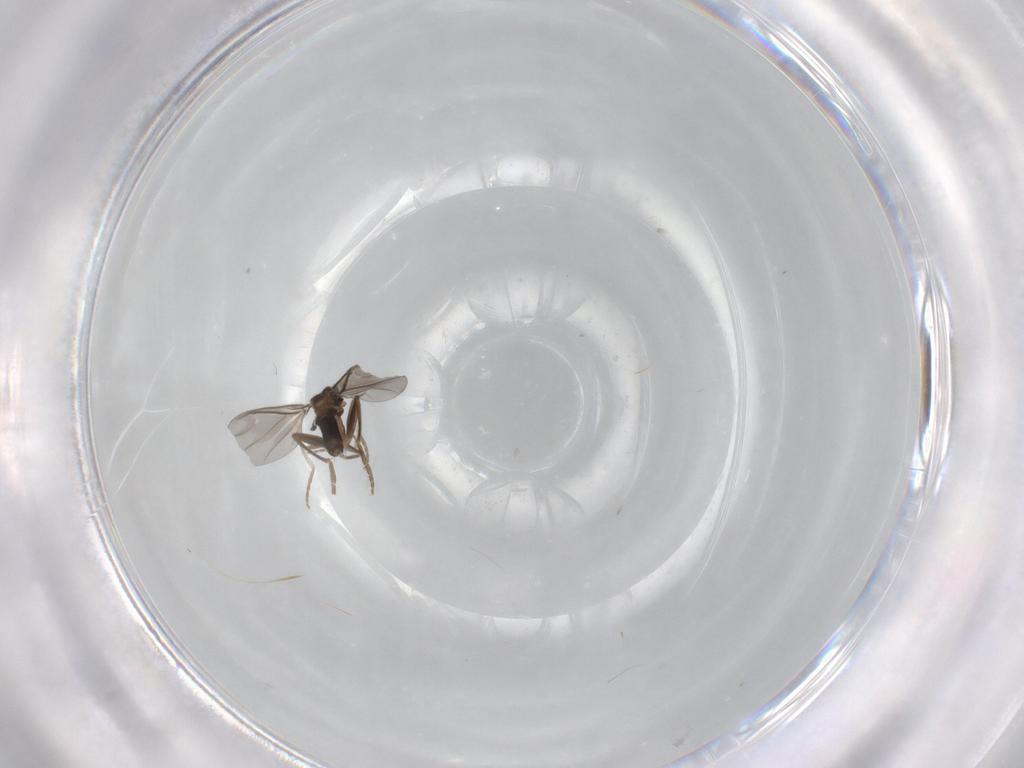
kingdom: Animalia
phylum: Arthropoda
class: Insecta
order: Diptera
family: Phoridae
